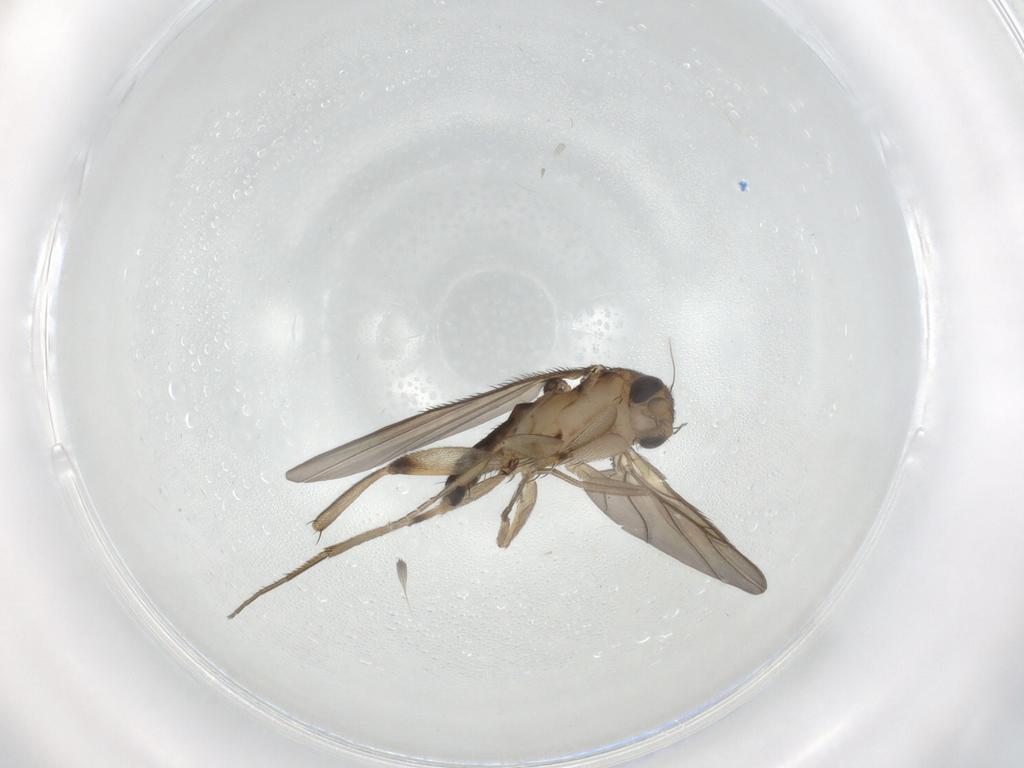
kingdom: Animalia
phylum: Arthropoda
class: Insecta
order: Diptera
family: Phoridae
